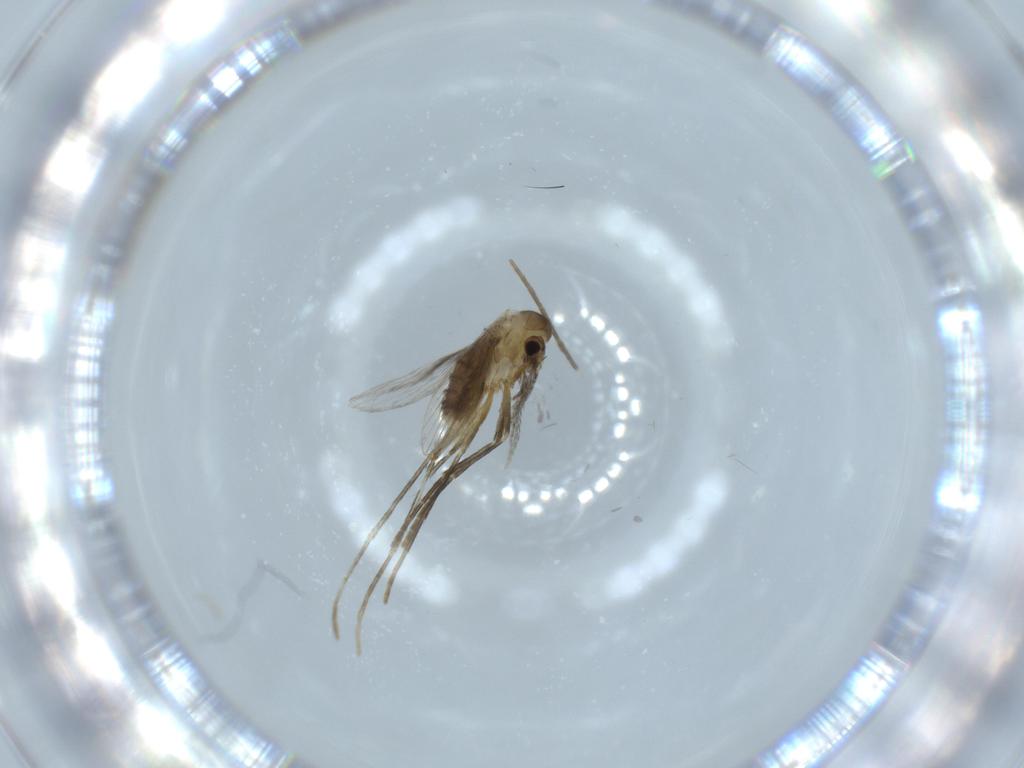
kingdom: Animalia
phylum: Arthropoda
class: Insecta
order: Diptera
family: Psychodidae
